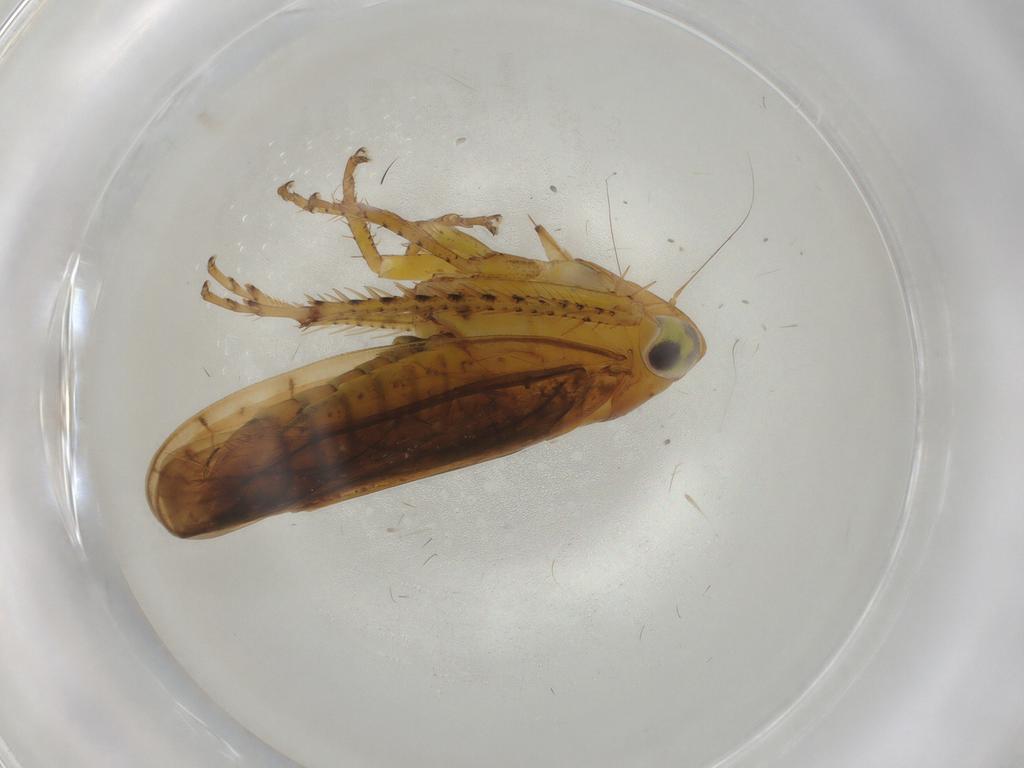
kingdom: Animalia
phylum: Arthropoda
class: Insecta
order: Hemiptera
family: Cicadellidae
